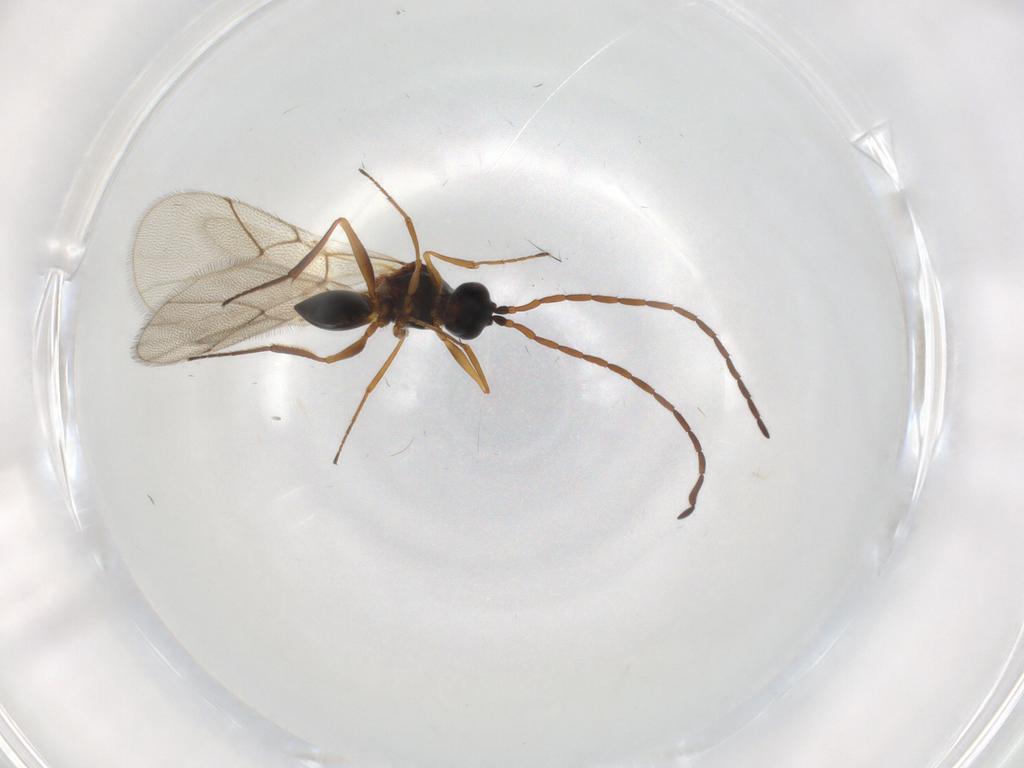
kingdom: Animalia
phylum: Arthropoda
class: Insecta
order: Hymenoptera
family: Figitidae
